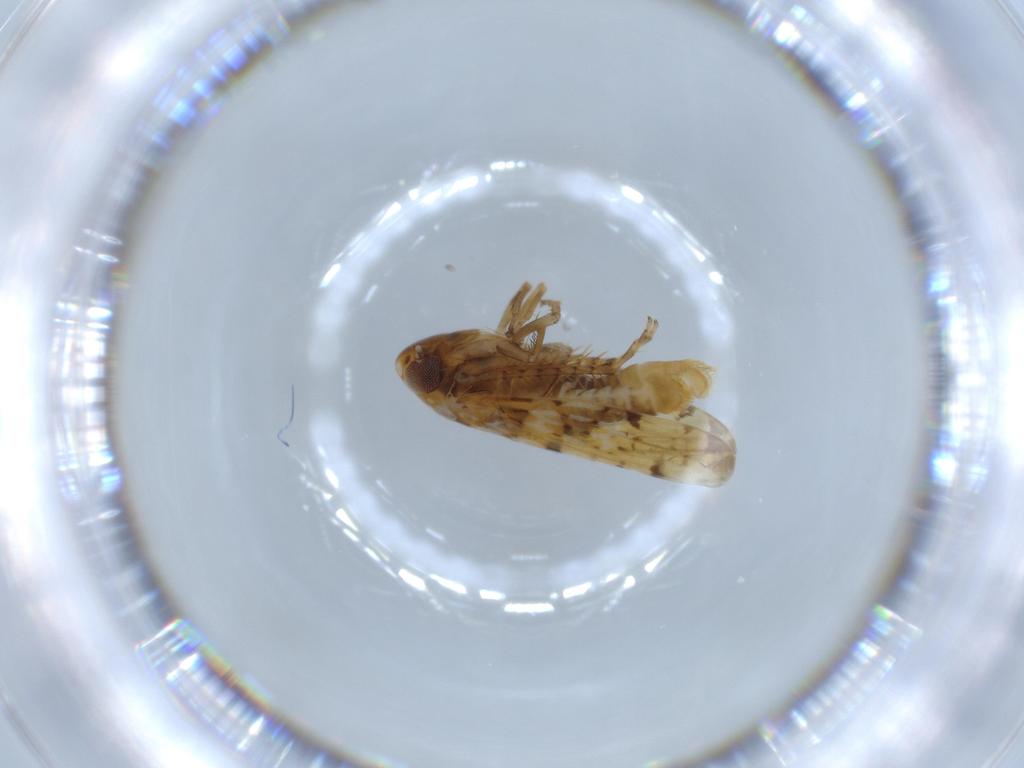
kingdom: Animalia
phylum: Arthropoda
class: Insecta
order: Hemiptera
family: Cicadellidae
